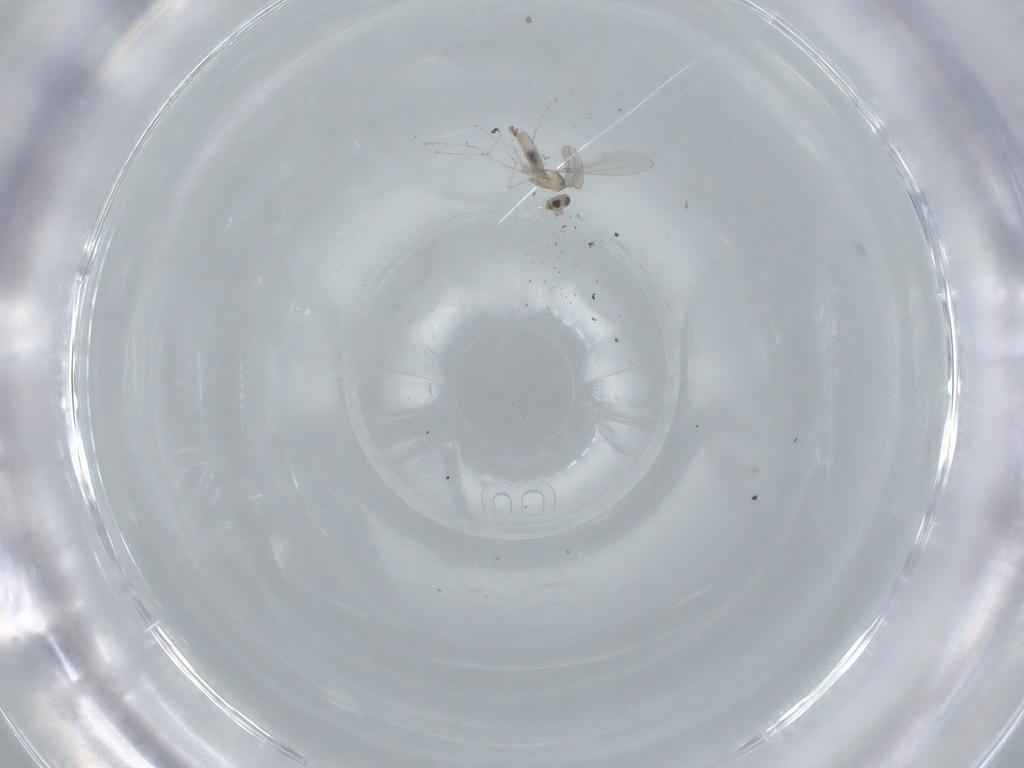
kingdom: Animalia
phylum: Arthropoda
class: Insecta
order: Diptera
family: Cecidomyiidae
